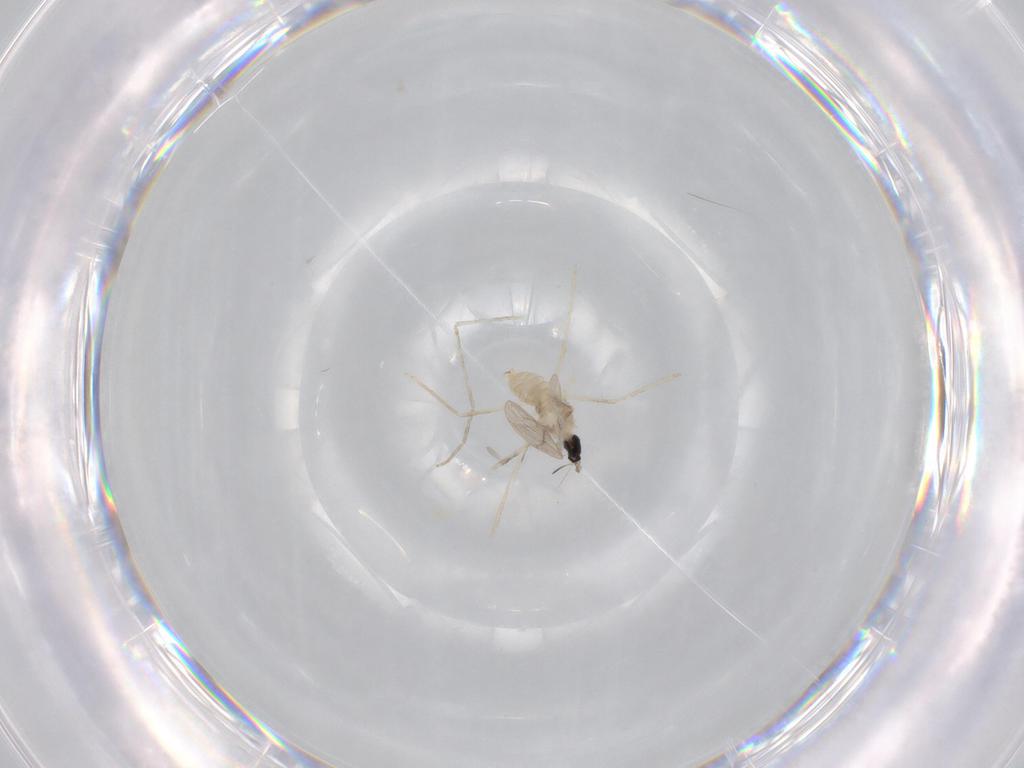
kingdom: Animalia
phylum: Arthropoda
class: Insecta
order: Diptera
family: Cecidomyiidae
